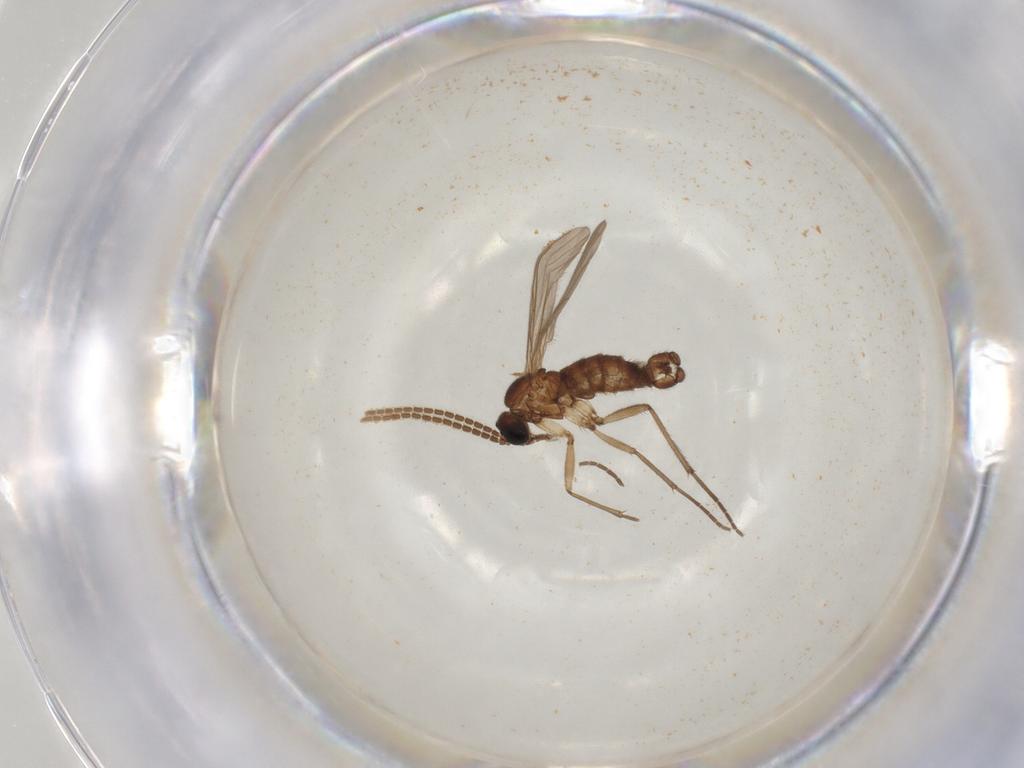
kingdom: Animalia
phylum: Arthropoda
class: Insecta
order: Diptera
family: Sciaridae
